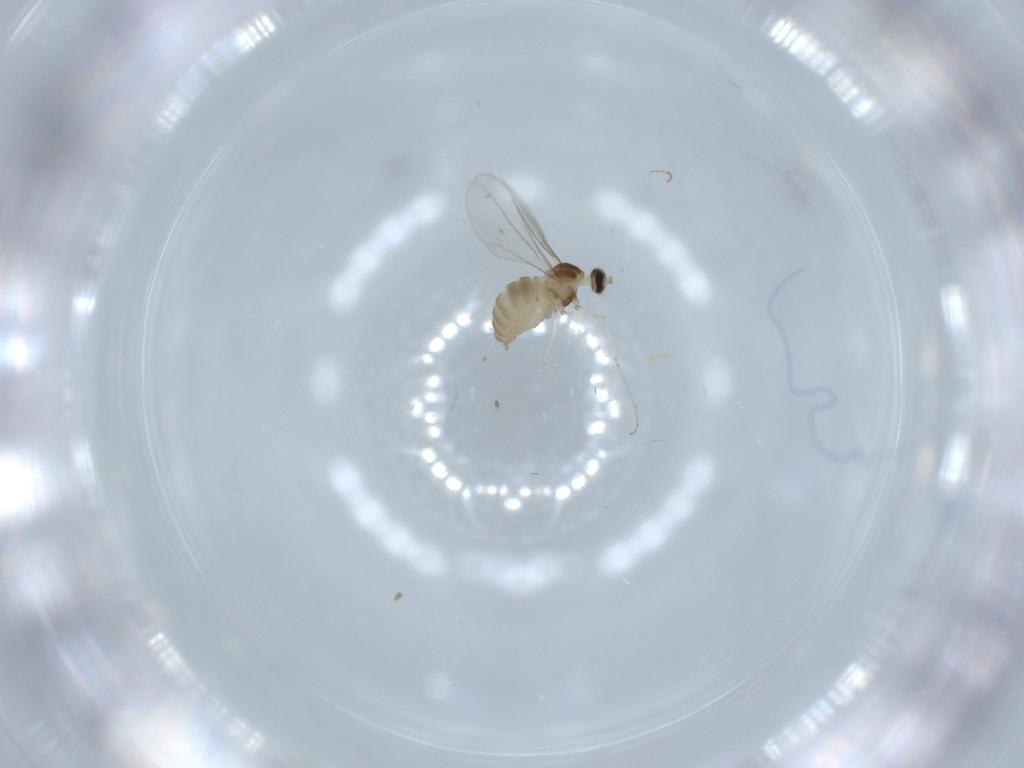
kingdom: Animalia
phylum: Arthropoda
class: Insecta
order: Diptera
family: Cecidomyiidae
